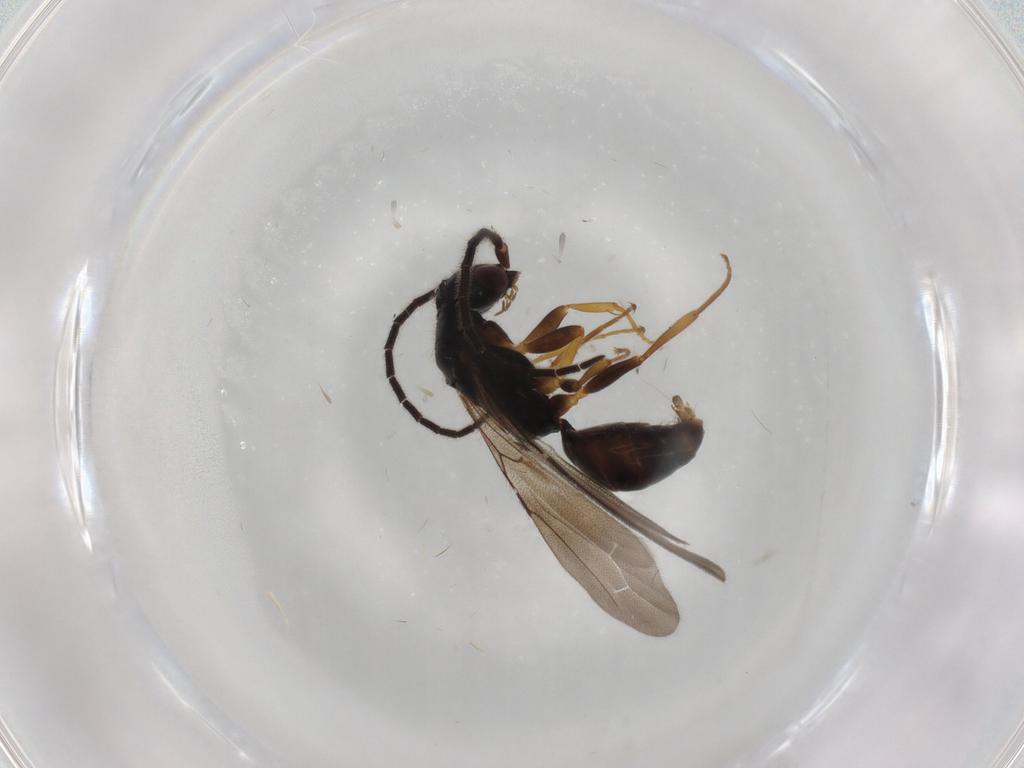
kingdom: Animalia
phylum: Arthropoda
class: Insecta
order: Hymenoptera
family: Bethylidae
